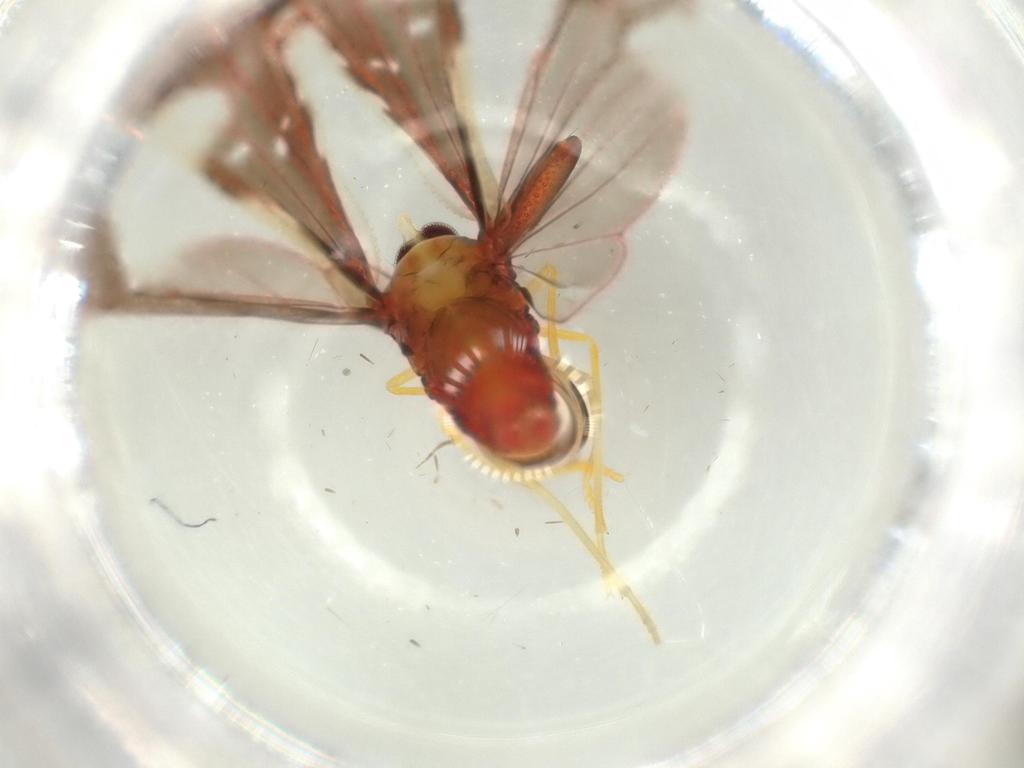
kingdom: Animalia
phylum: Arthropoda
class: Insecta
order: Hemiptera
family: Derbidae
